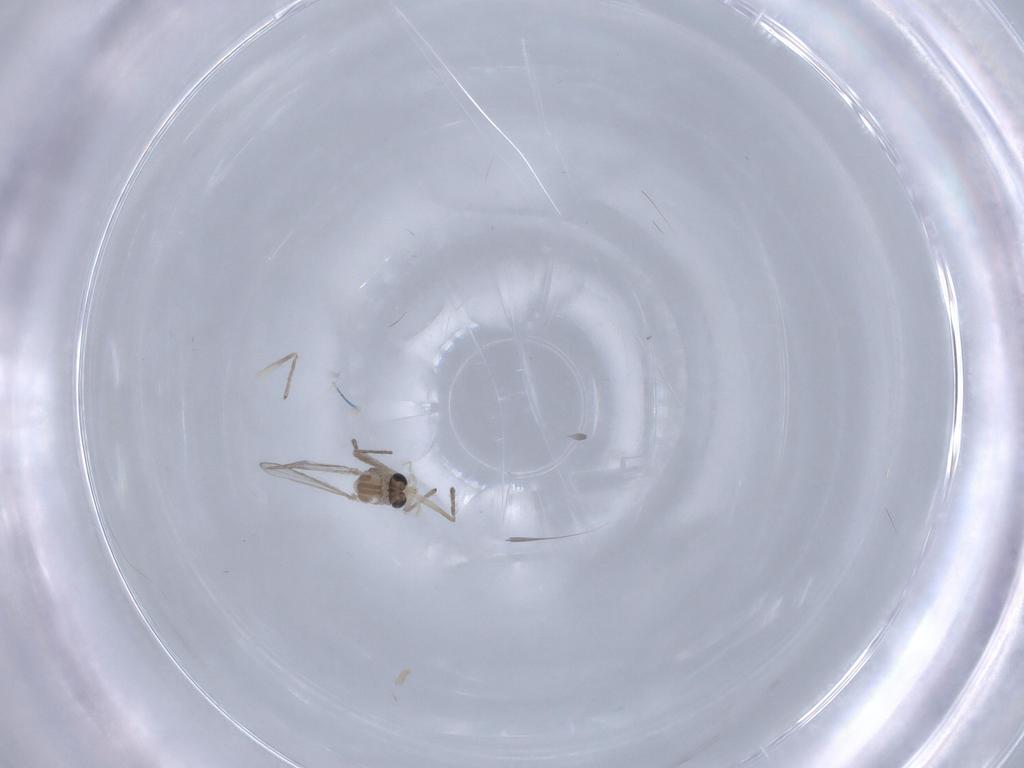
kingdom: Animalia
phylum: Arthropoda
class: Insecta
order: Diptera
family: Chironomidae
